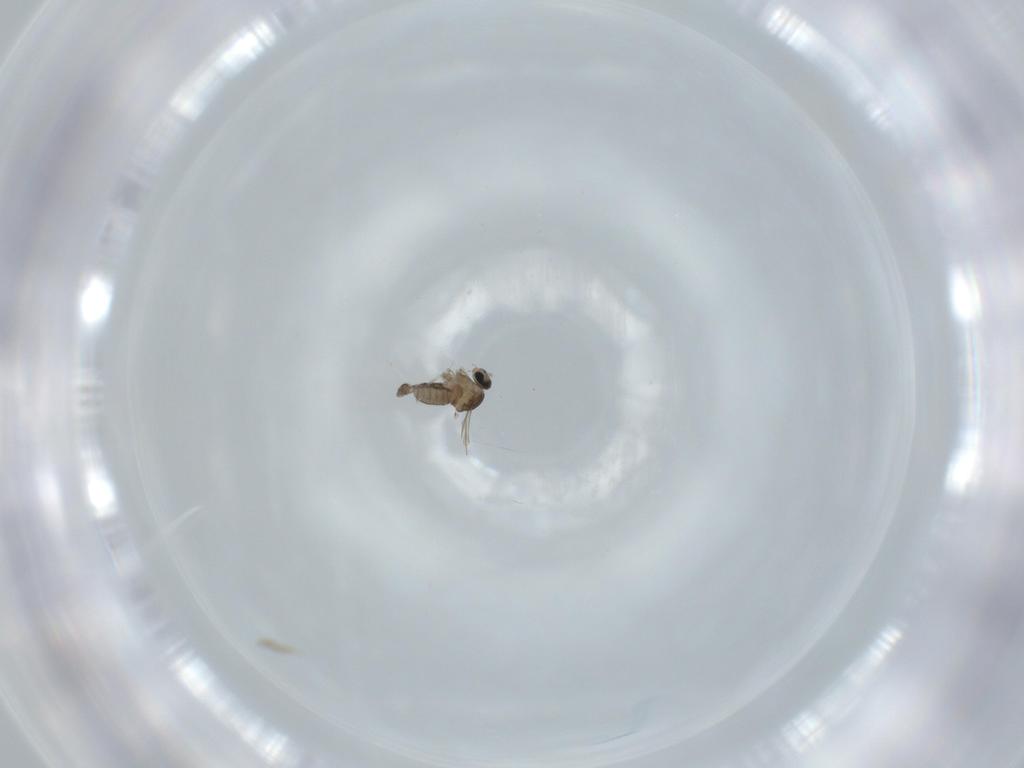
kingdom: Animalia
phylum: Arthropoda
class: Insecta
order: Diptera
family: Cecidomyiidae
